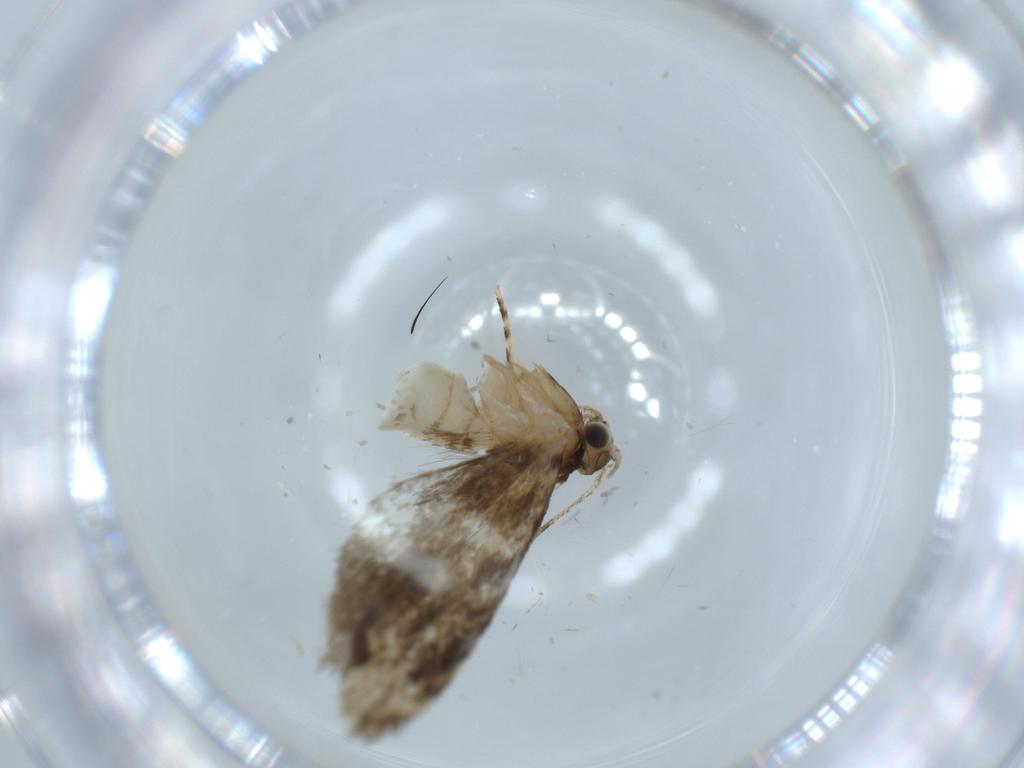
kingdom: Animalia
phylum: Arthropoda
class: Insecta
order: Lepidoptera
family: Tineidae
